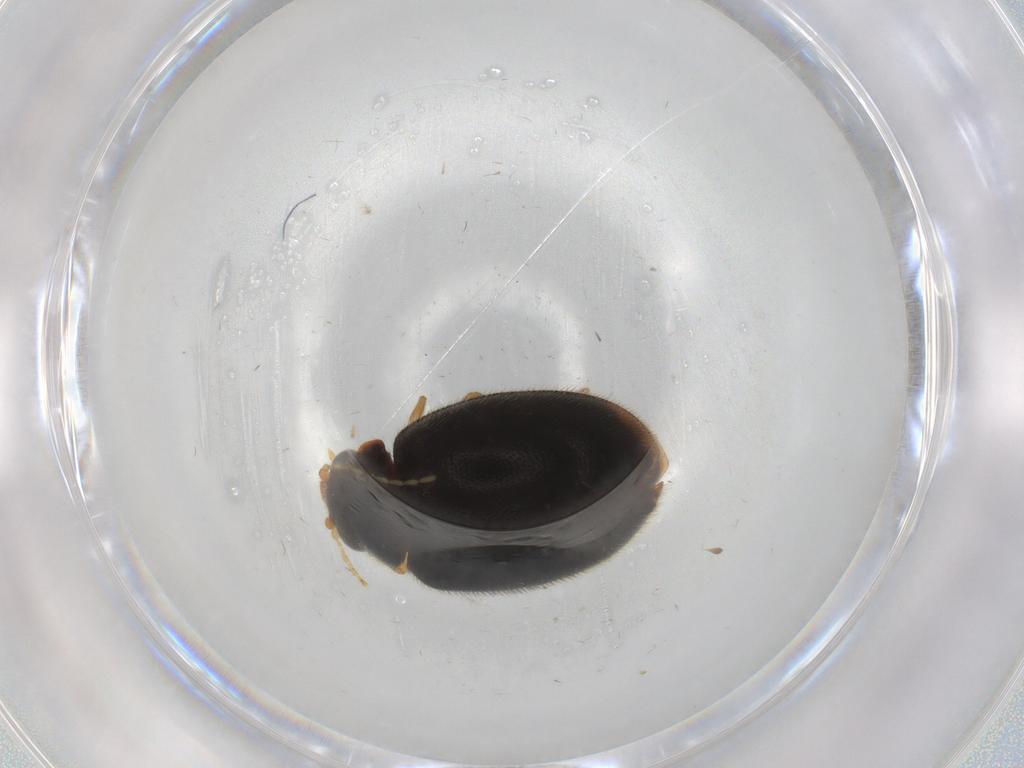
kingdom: Animalia
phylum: Arthropoda
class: Insecta
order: Coleoptera
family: Scirtidae
